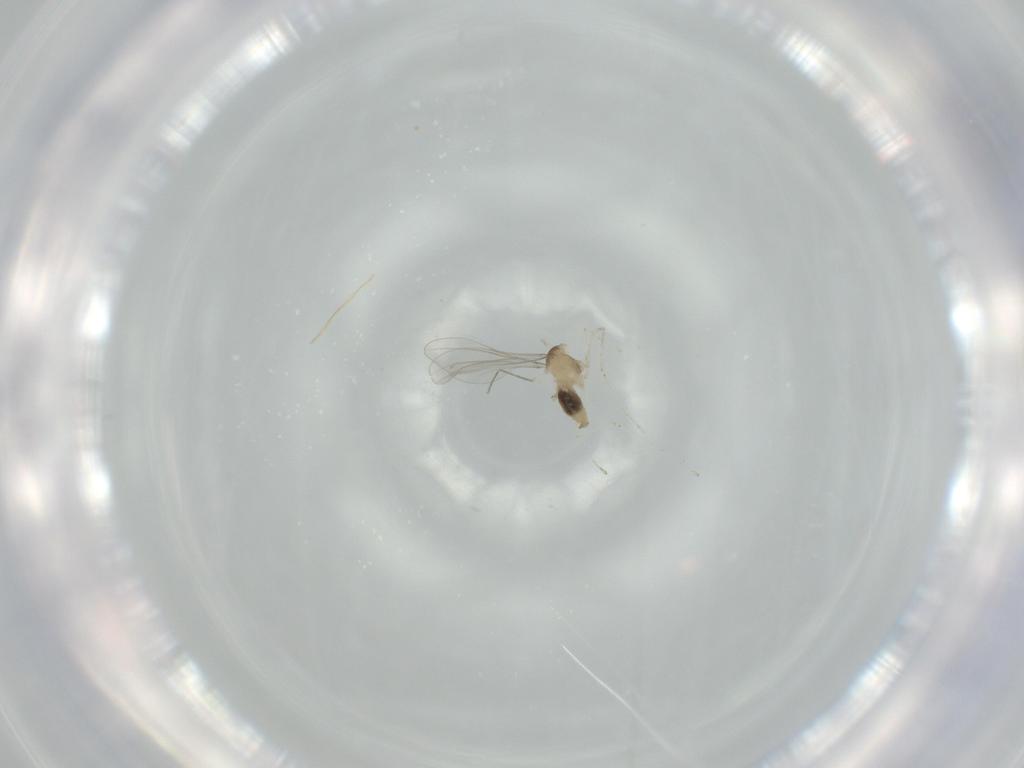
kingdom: Animalia
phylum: Arthropoda
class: Insecta
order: Diptera
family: Cecidomyiidae
